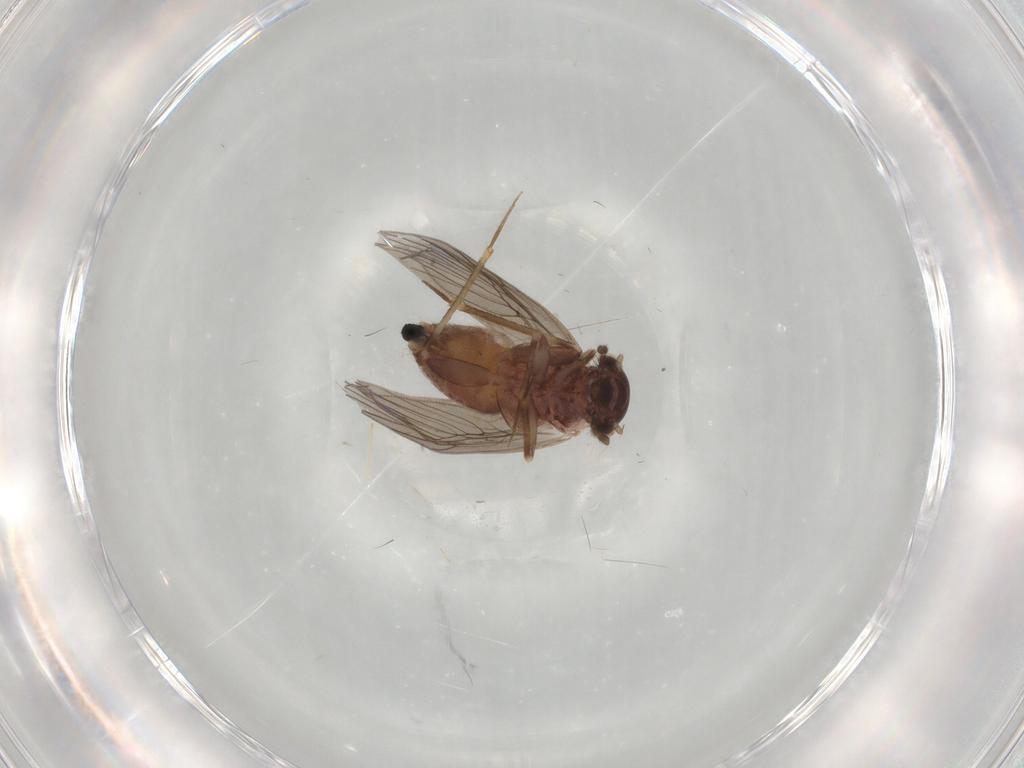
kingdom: Animalia
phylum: Arthropoda
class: Insecta
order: Psocodea
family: Lepidopsocidae
